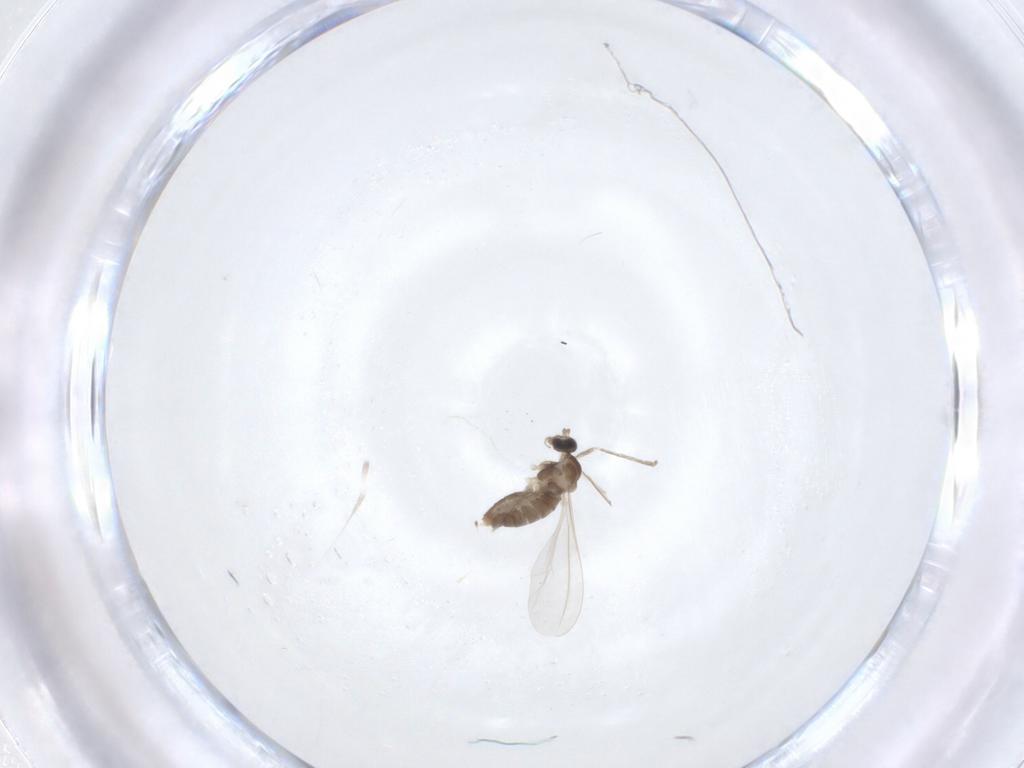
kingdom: Animalia
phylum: Arthropoda
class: Insecta
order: Diptera
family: Cecidomyiidae
